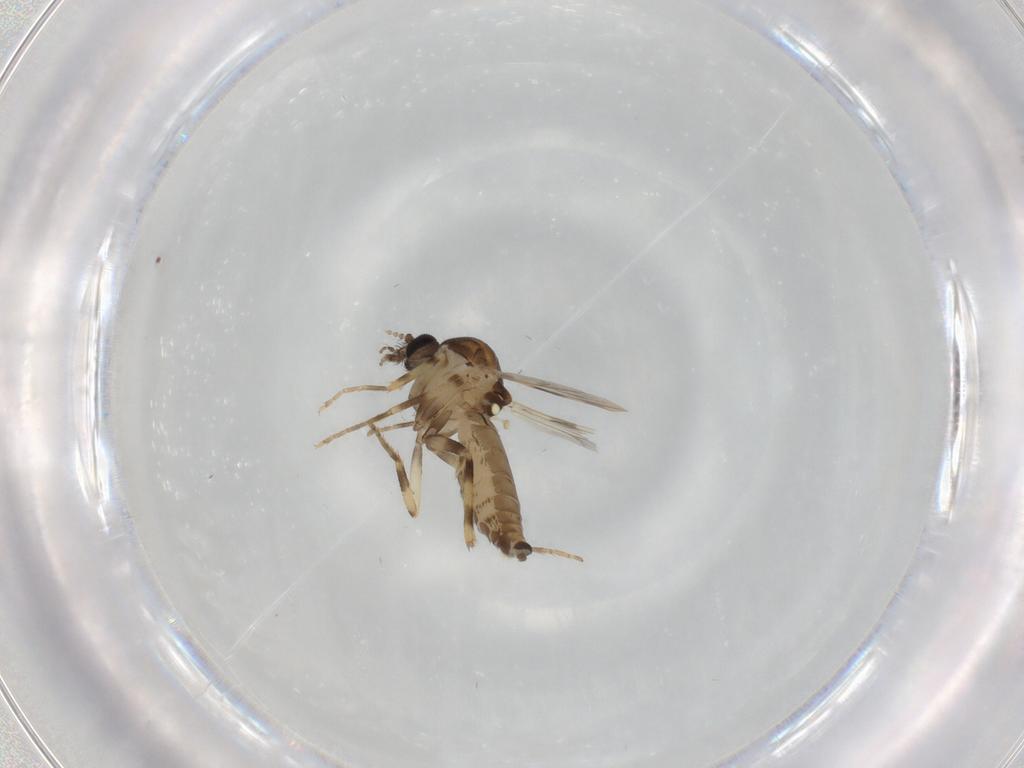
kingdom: Animalia
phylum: Arthropoda
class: Insecta
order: Diptera
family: Ceratopogonidae
